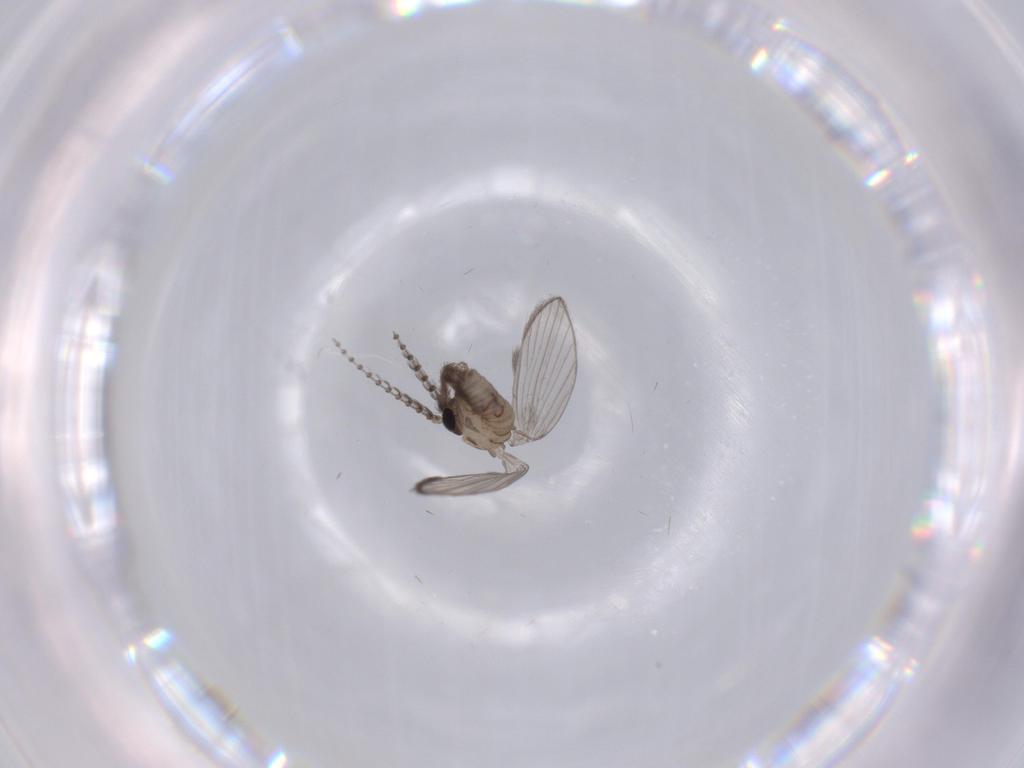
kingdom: Animalia
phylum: Arthropoda
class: Insecta
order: Diptera
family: Psychodidae
